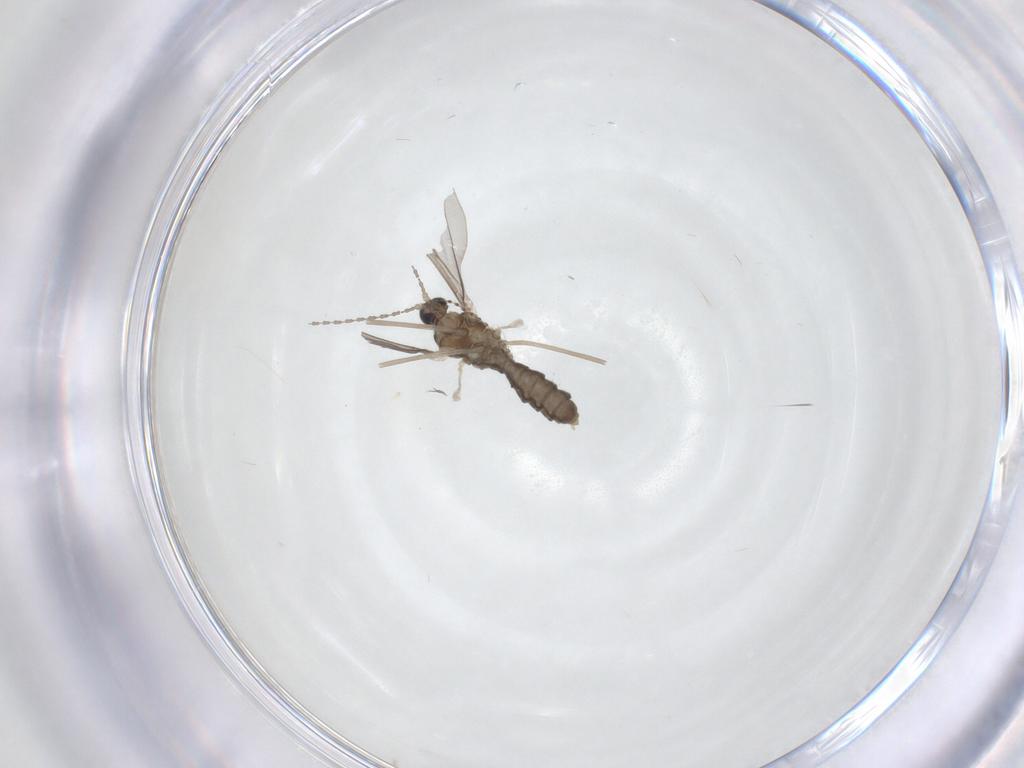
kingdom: Animalia
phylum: Arthropoda
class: Insecta
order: Diptera
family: Cecidomyiidae
